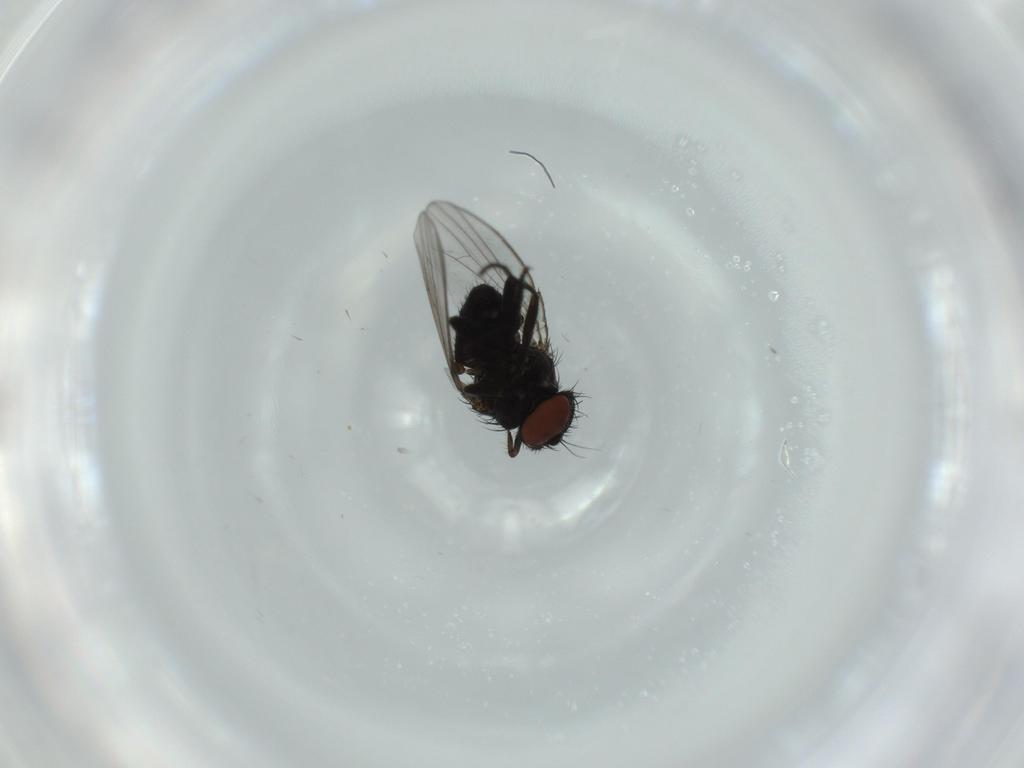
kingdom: Animalia
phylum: Arthropoda
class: Insecta
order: Diptera
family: Milichiidae
